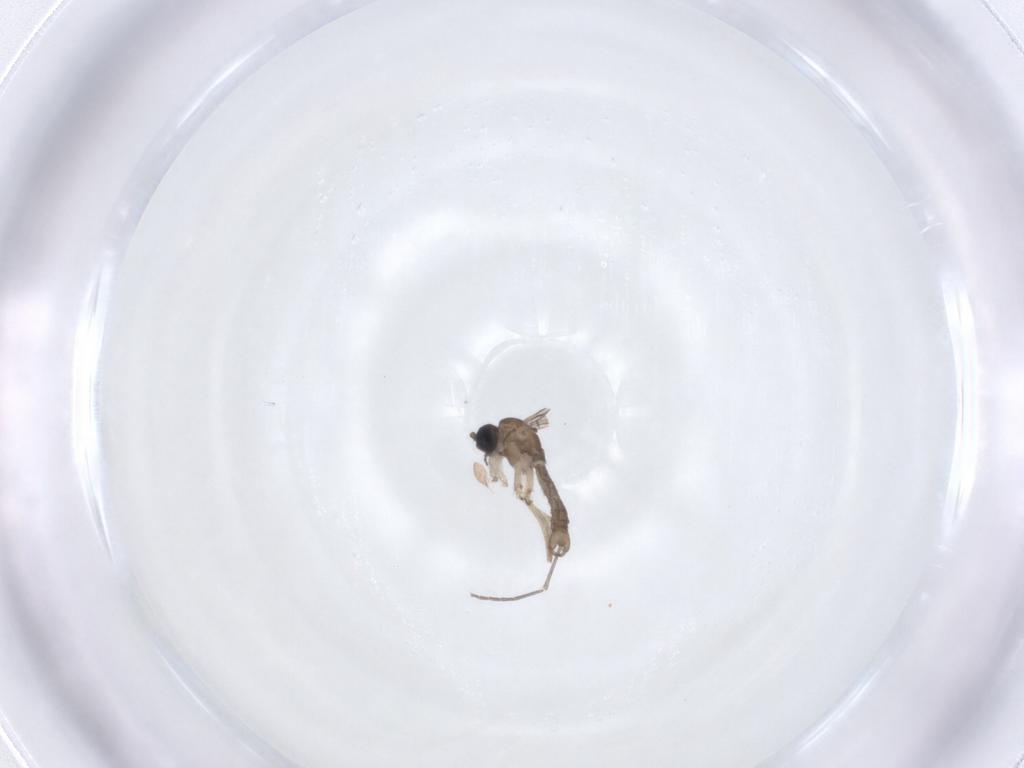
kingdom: Animalia
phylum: Arthropoda
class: Insecta
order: Diptera
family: Sciaridae
